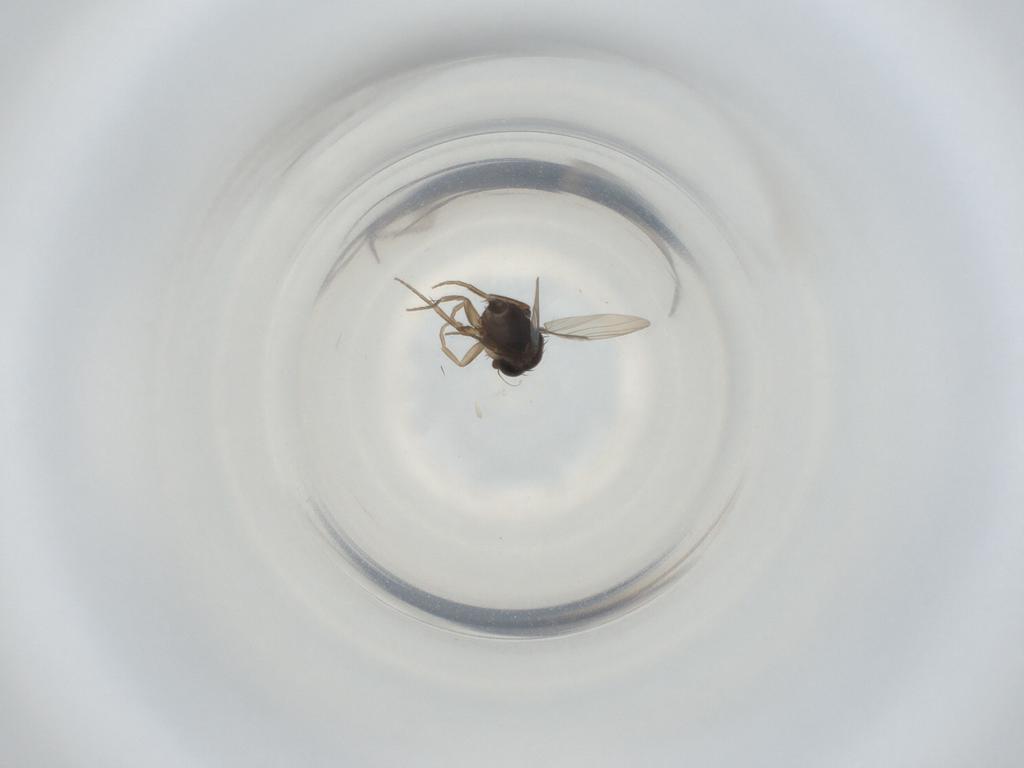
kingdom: Animalia
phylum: Arthropoda
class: Insecta
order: Diptera
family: Phoridae
